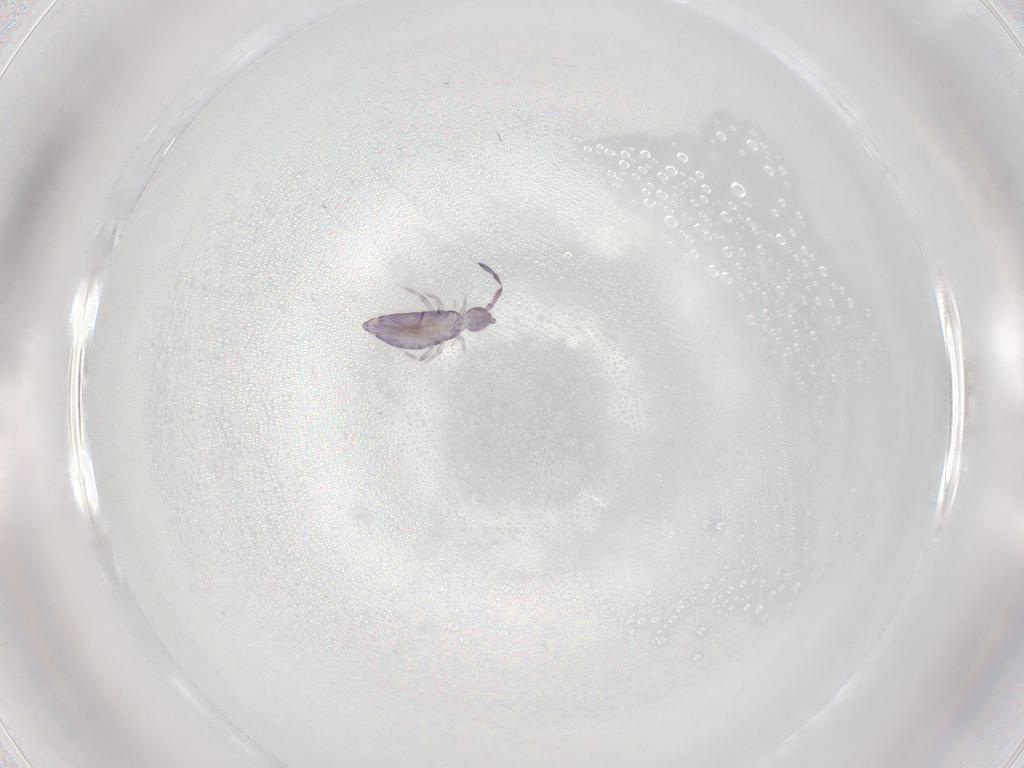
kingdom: Animalia
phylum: Arthropoda
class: Collembola
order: Entomobryomorpha
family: Entomobryidae
